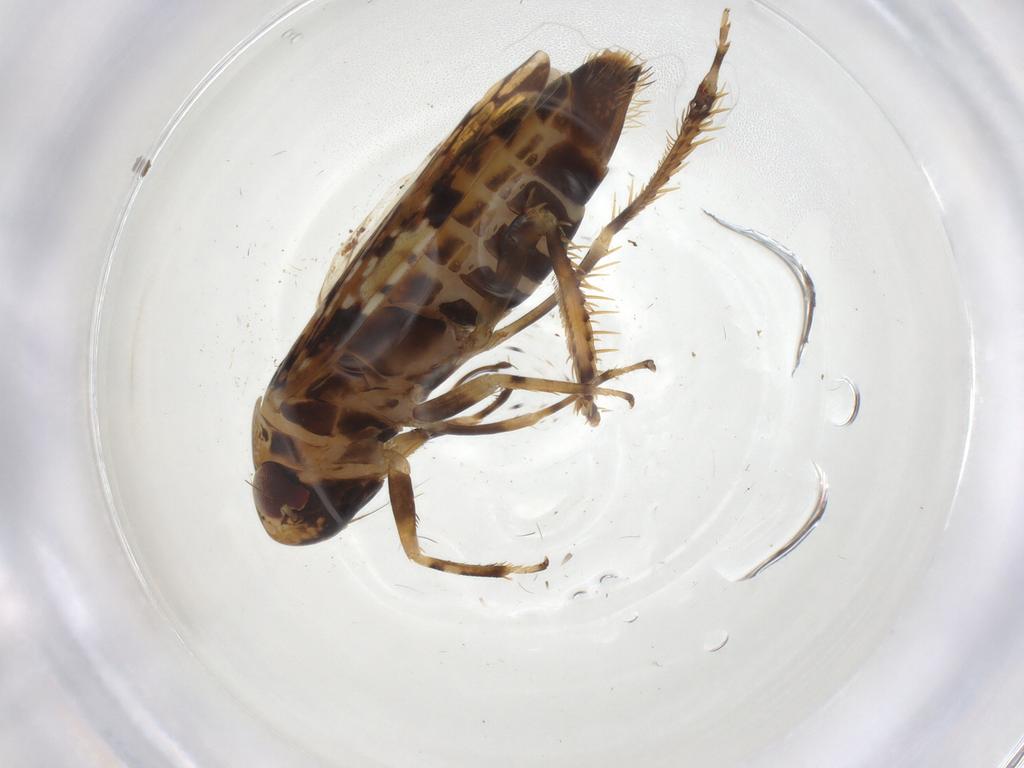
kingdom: Animalia
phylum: Arthropoda
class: Insecta
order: Hemiptera
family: Cicadellidae
